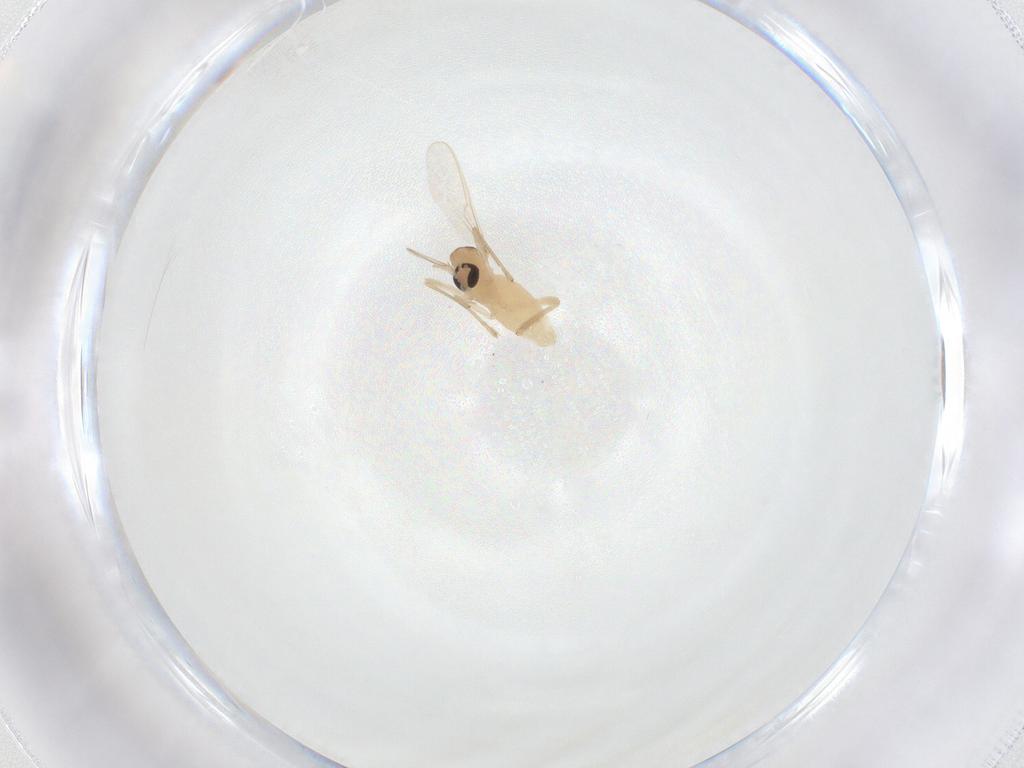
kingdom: Animalia
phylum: Arthropoda
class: Insecta
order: Diptera
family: Chironomidae
